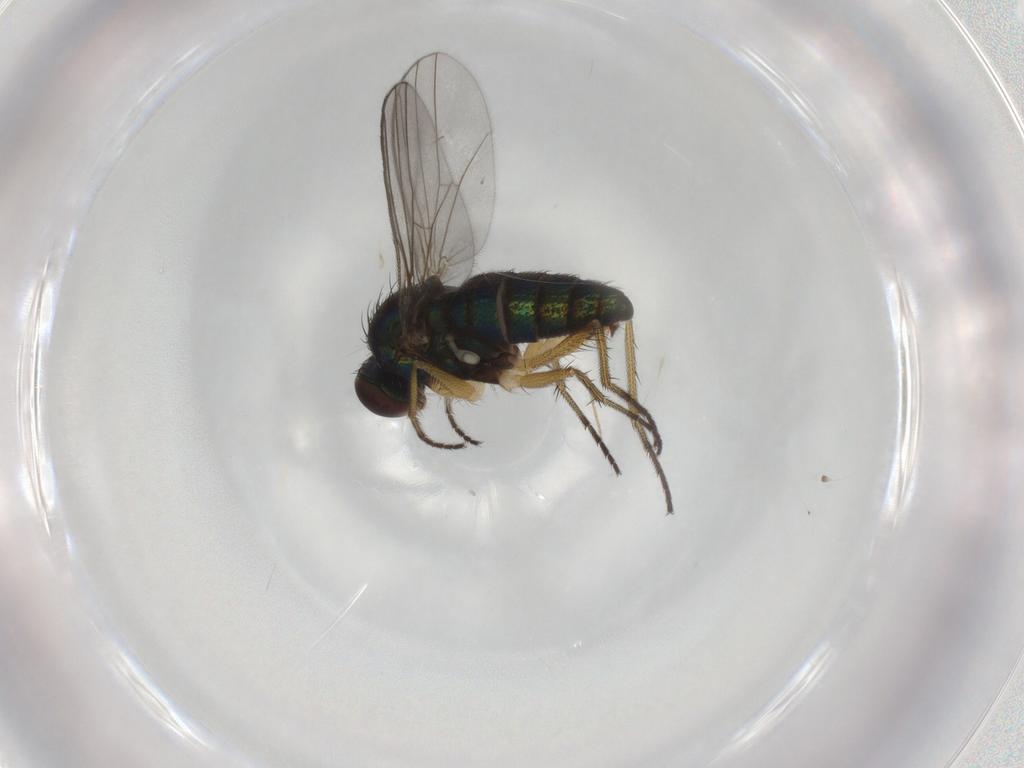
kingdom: Animalia
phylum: Arthropoda
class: Insecta
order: Diptera
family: Chironomidae
